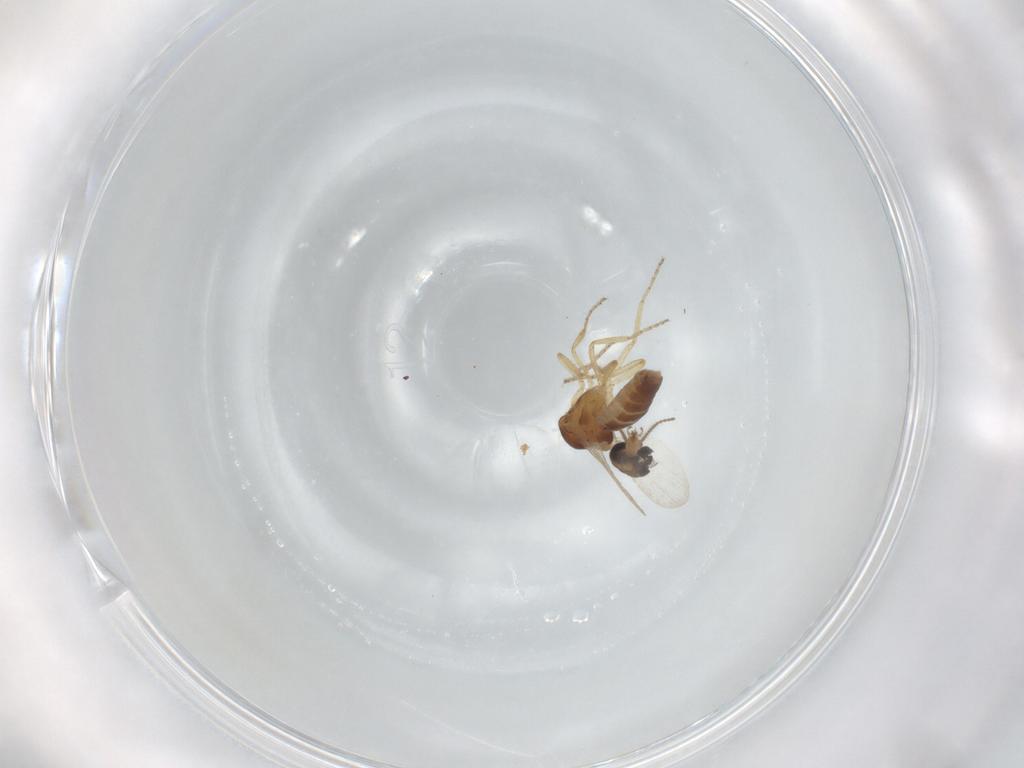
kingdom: Animalia
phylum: Arthropoda
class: Insecta
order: Diptera
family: Ceratopogonidae
